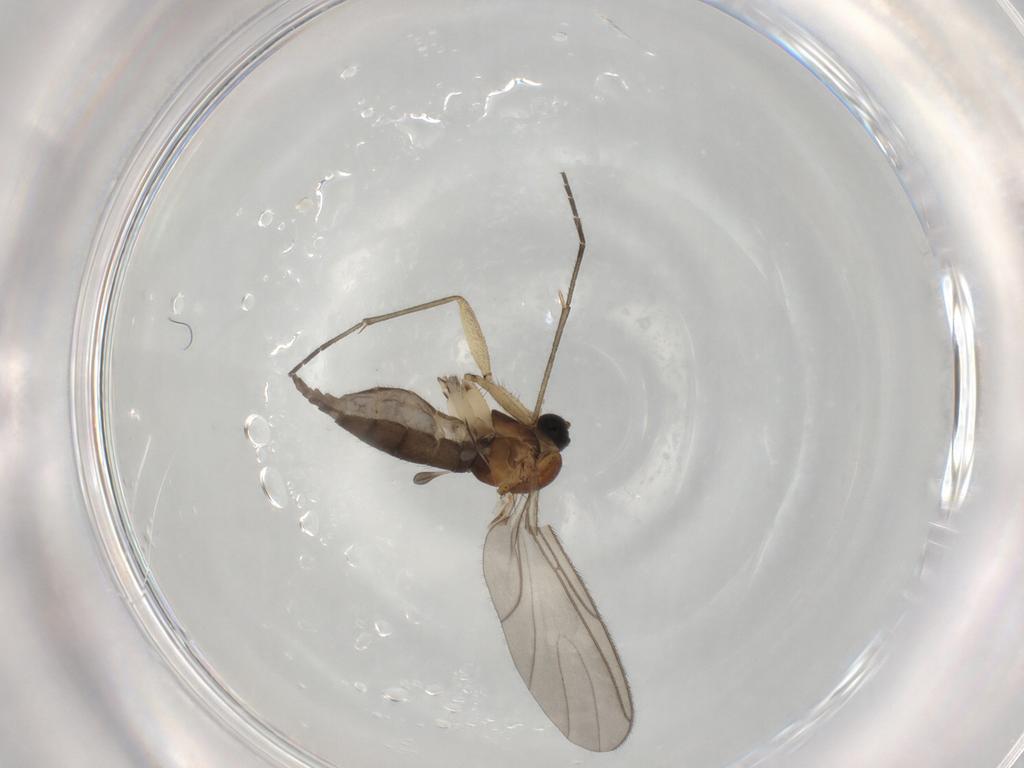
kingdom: Animalia
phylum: Arthropoda
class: Insecta
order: Diptera
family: Sciaridae
